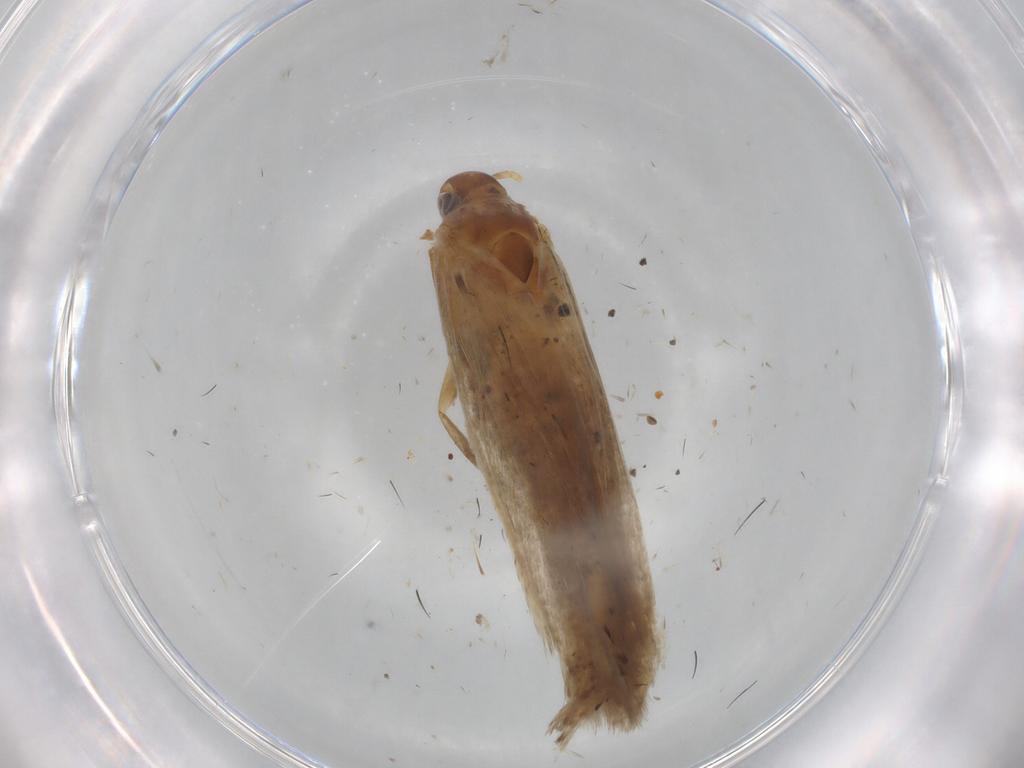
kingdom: Animalia
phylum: Arthropoda
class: Insecta
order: Lepidoptera
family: Gelechiidae
